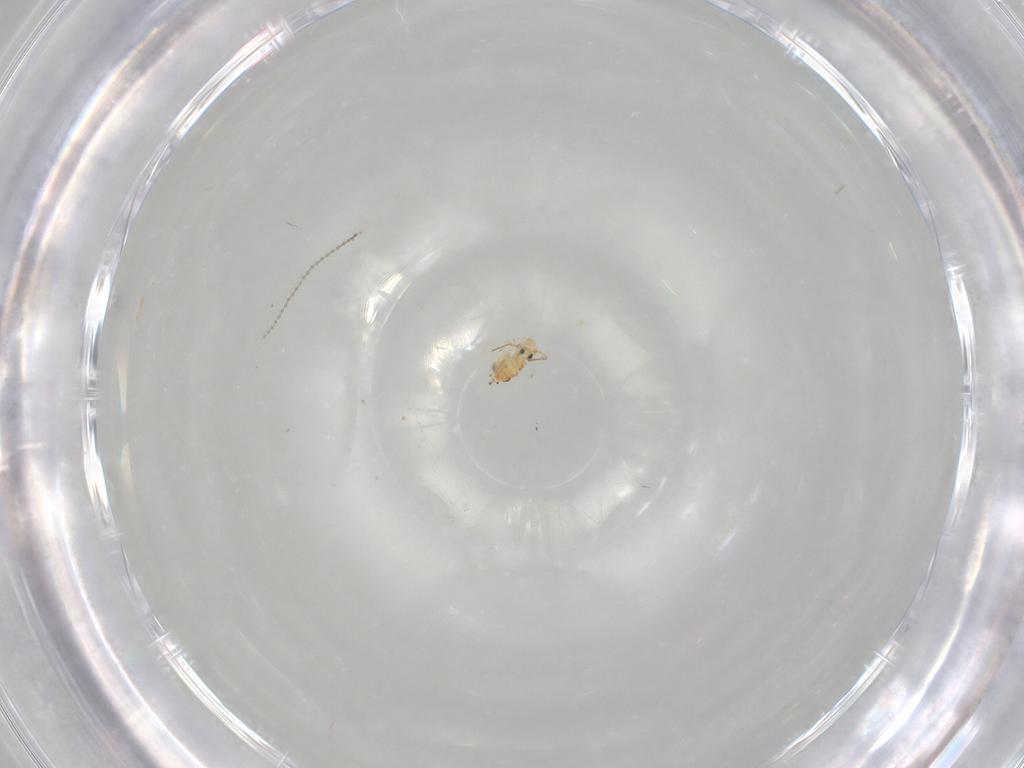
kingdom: Animalia
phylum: Arthropoda
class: Collembola
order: Symphypleona
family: Bourletiellidae
